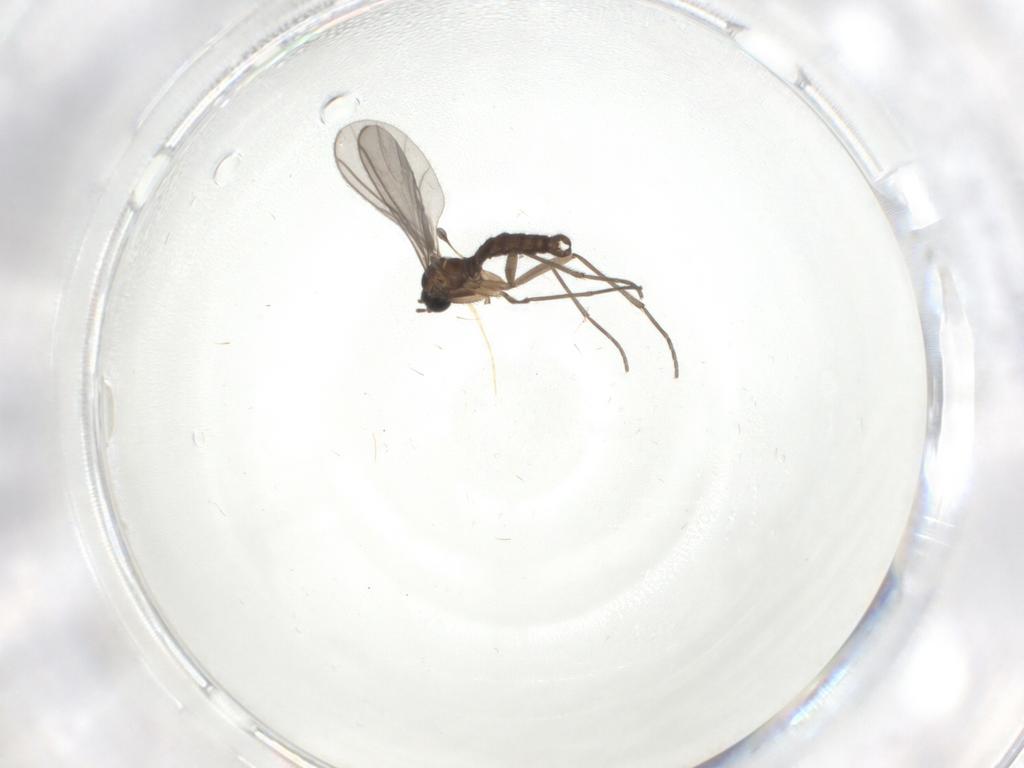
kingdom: Animalia
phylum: Arthropoda
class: Insecta
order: Diptera
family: Sciaridae
